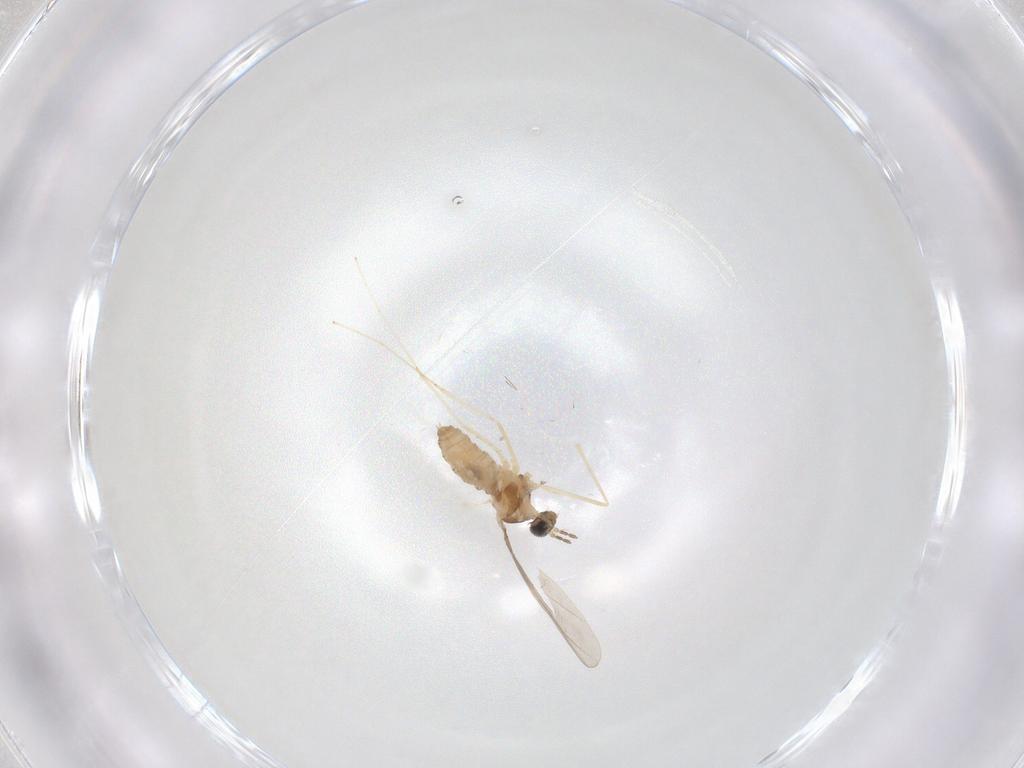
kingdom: Animalia
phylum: Arthropoda
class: Insecta
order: Diptera
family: Cecidomyiidae
